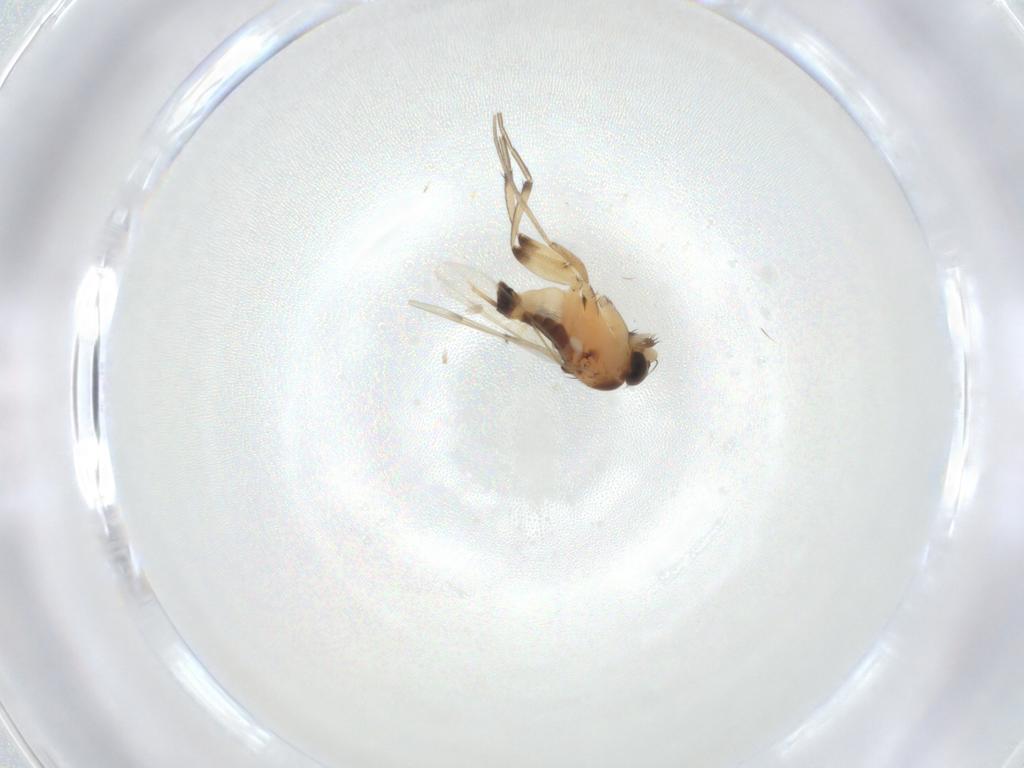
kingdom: Animalia
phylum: Arthropoda
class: Insecta
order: Diptera
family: Phoridae
